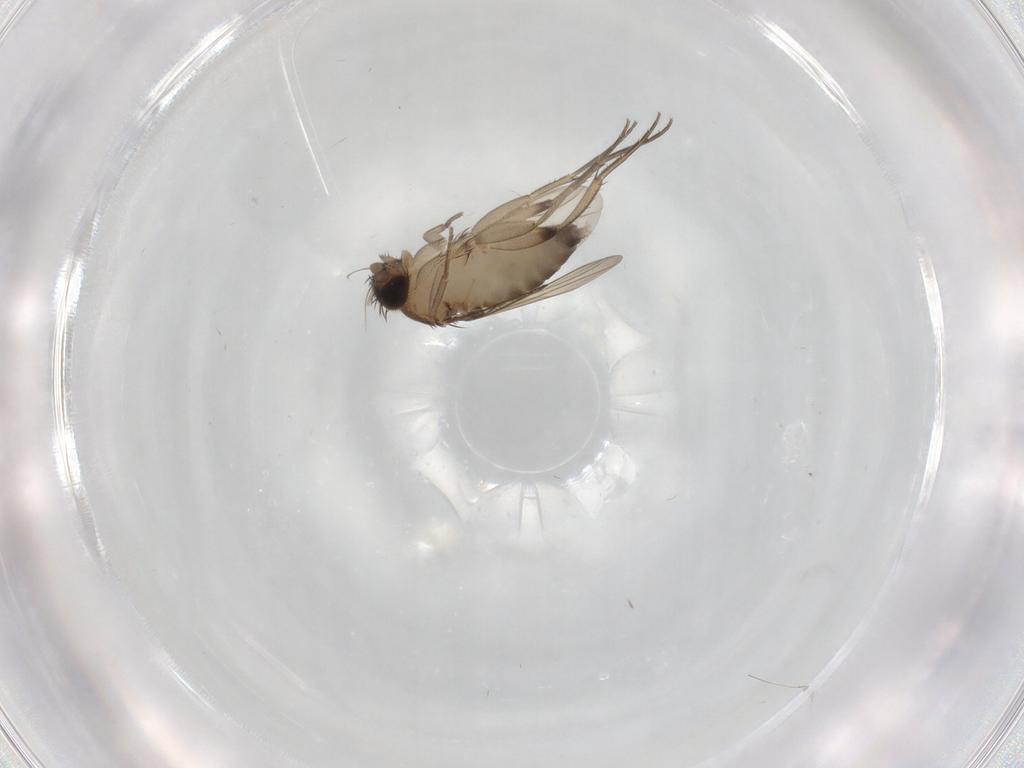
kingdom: Animalia
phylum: Arthropoda
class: Insecta
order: Diptera
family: Phoridae
